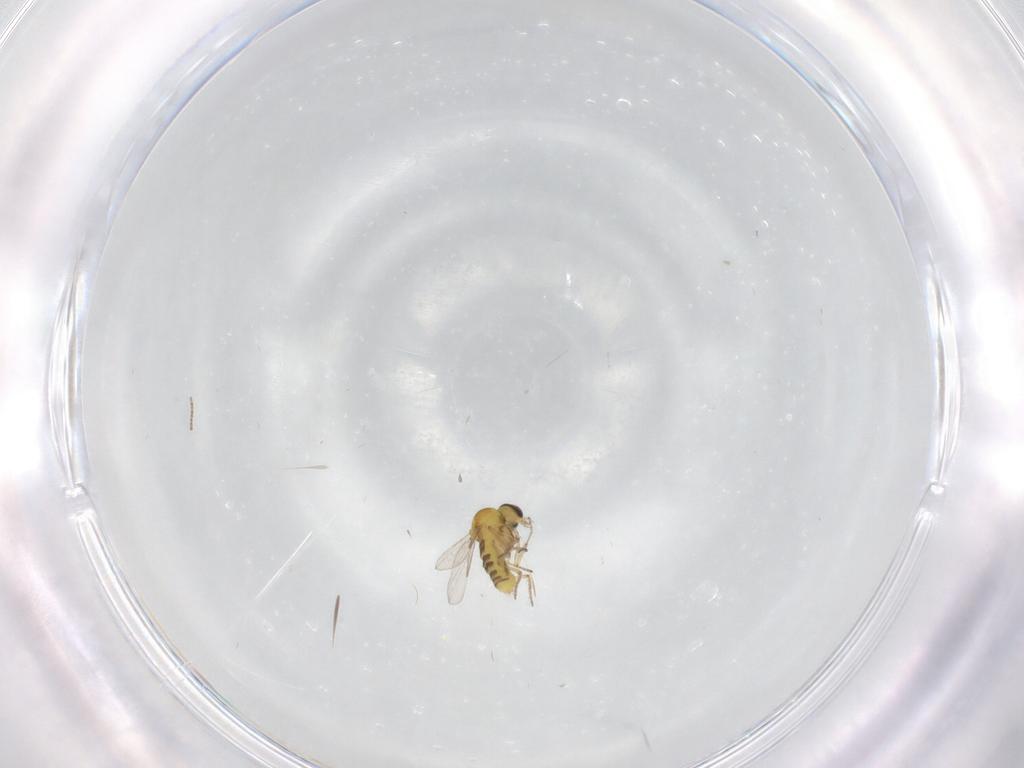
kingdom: Animalia
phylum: Arthropoda
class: Insecta
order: Diptera
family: Ceratopogonidae
